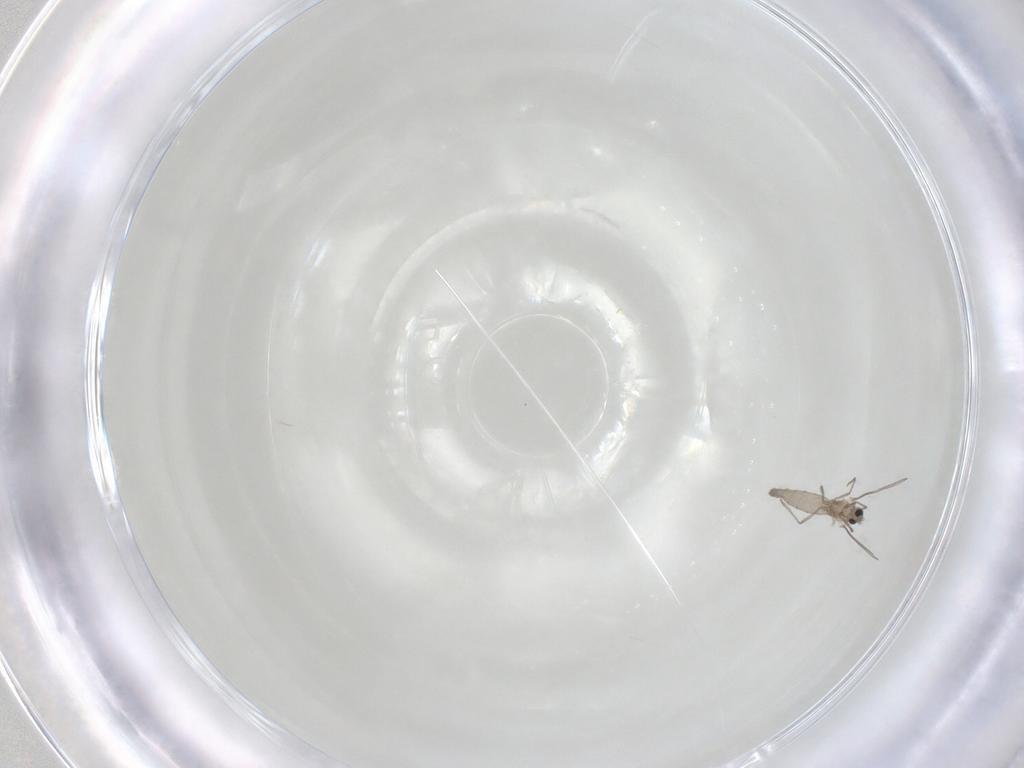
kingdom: Animalia
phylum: Arthropoda
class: Insecta
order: Diptera
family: Cecidomyiidae
